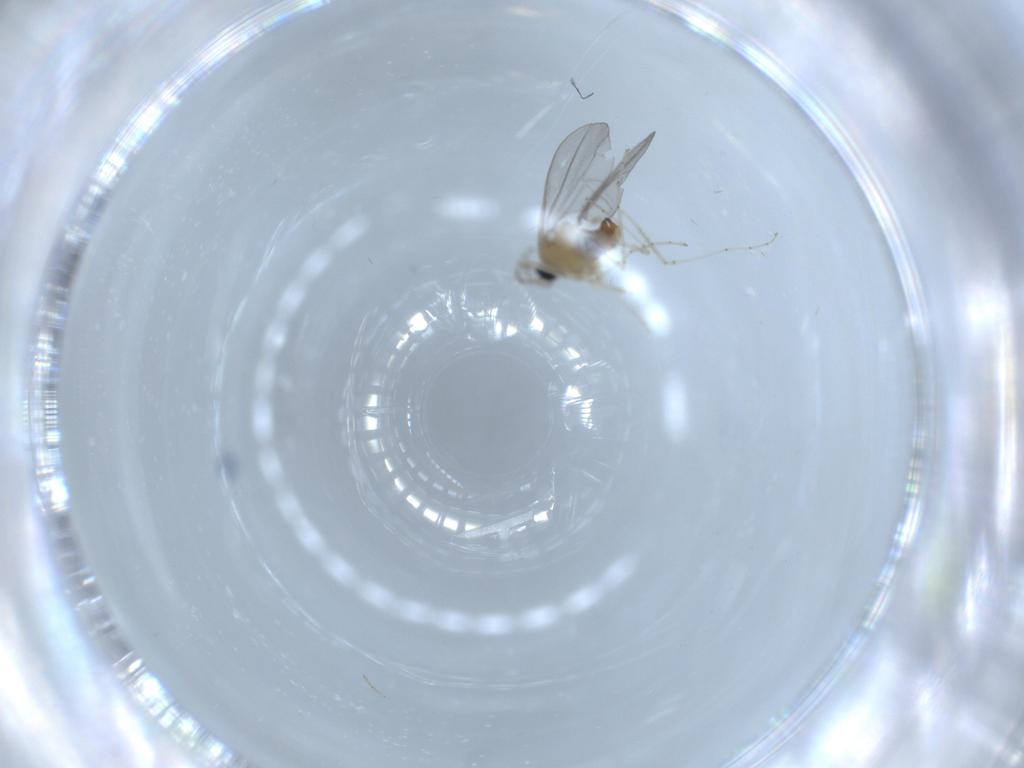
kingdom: Animalia
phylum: Arthropoda
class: Insecta
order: Diptera
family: Cecidomyiidae
